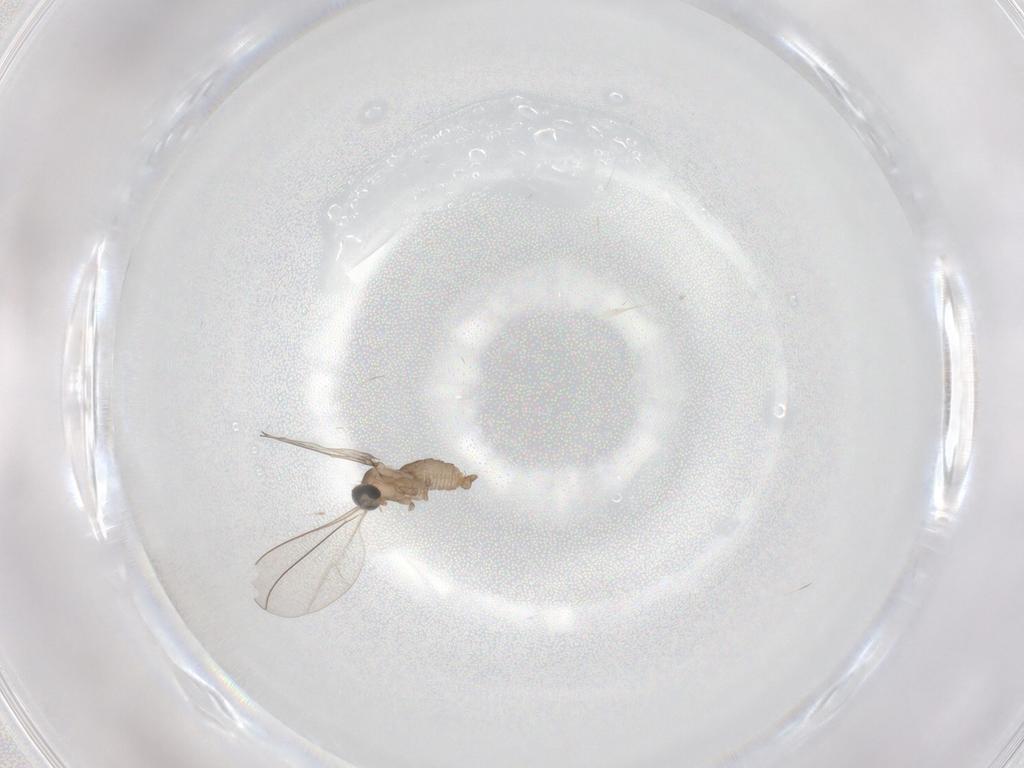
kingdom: Animalia
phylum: Arthropoda
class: Insecta
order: Diptera
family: Cecidomyiidae
